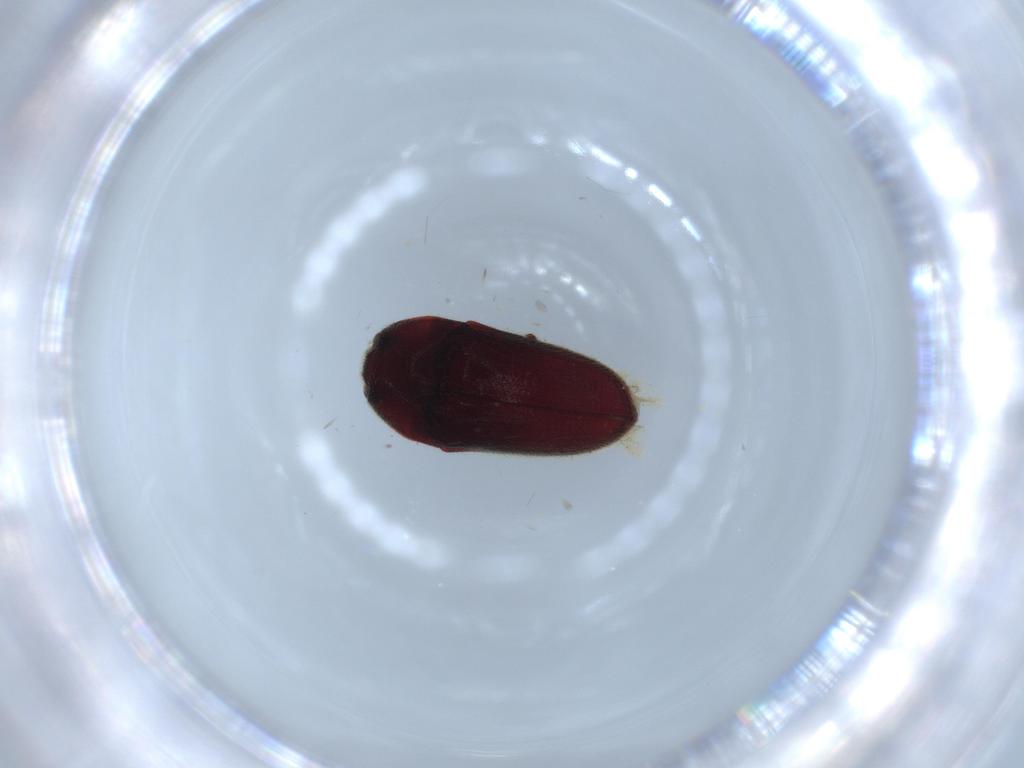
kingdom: Animalia
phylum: Arthropoda
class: Insecta
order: Coleoptera
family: Throscidae
